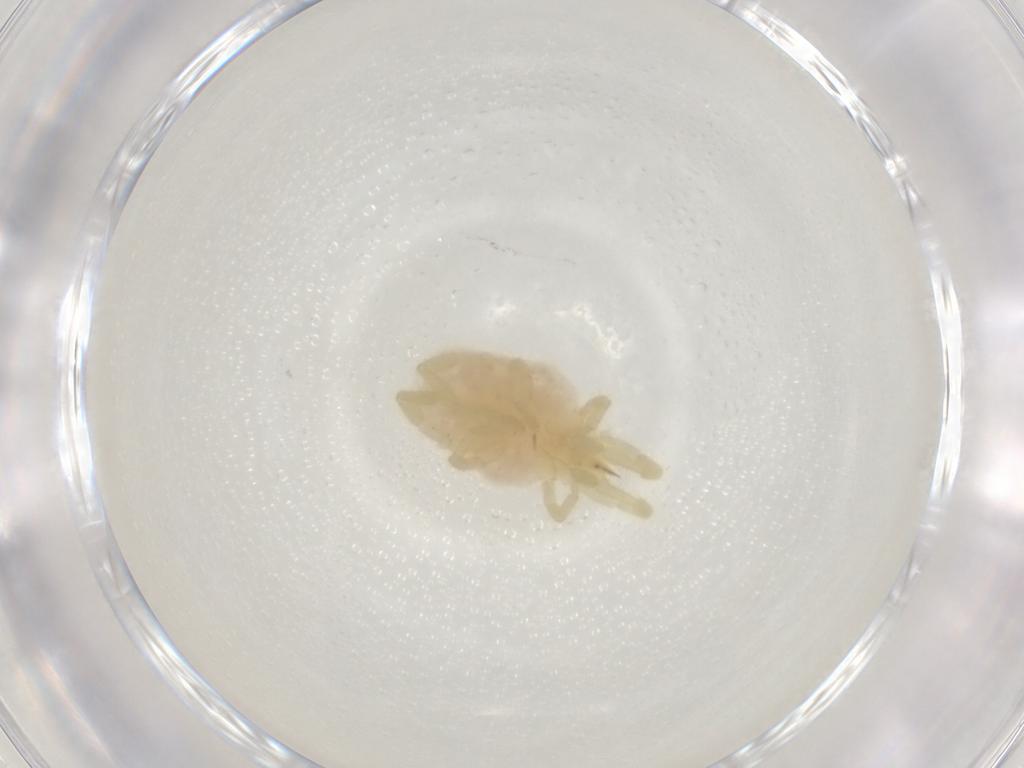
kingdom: Animalia
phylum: Arthropoda
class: Arachnida
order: Trombidiformes
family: Erythraeidae
